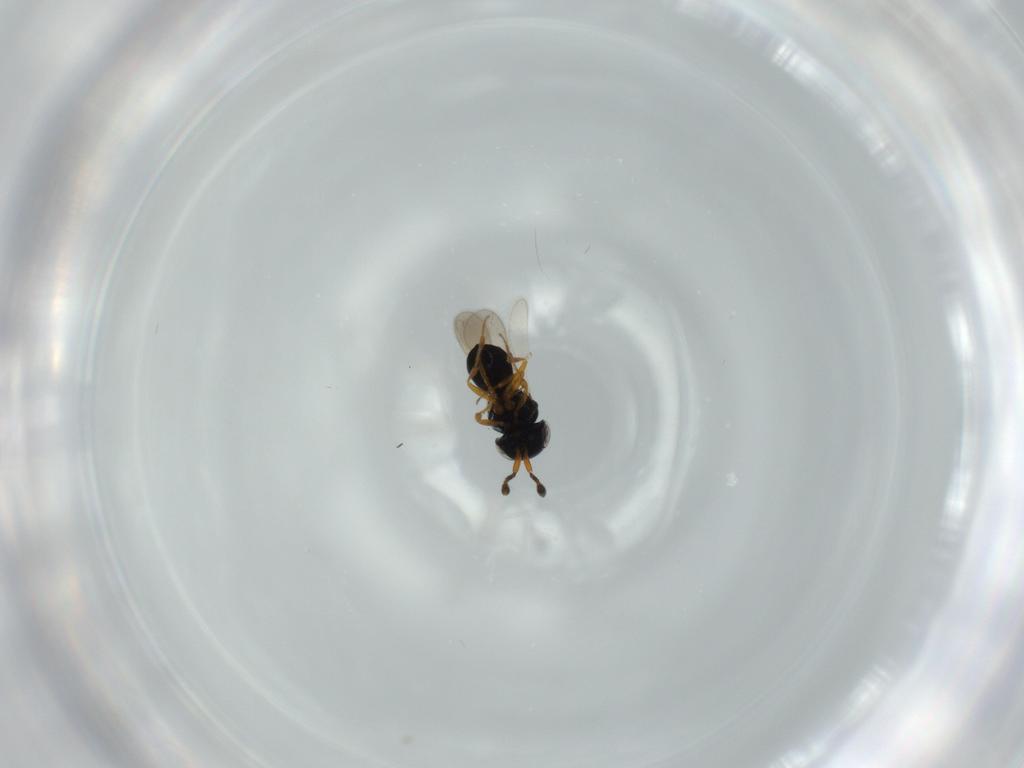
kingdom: Animalia
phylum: Arthropoda
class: Insecta
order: Hymenoptera
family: Scelionidae
